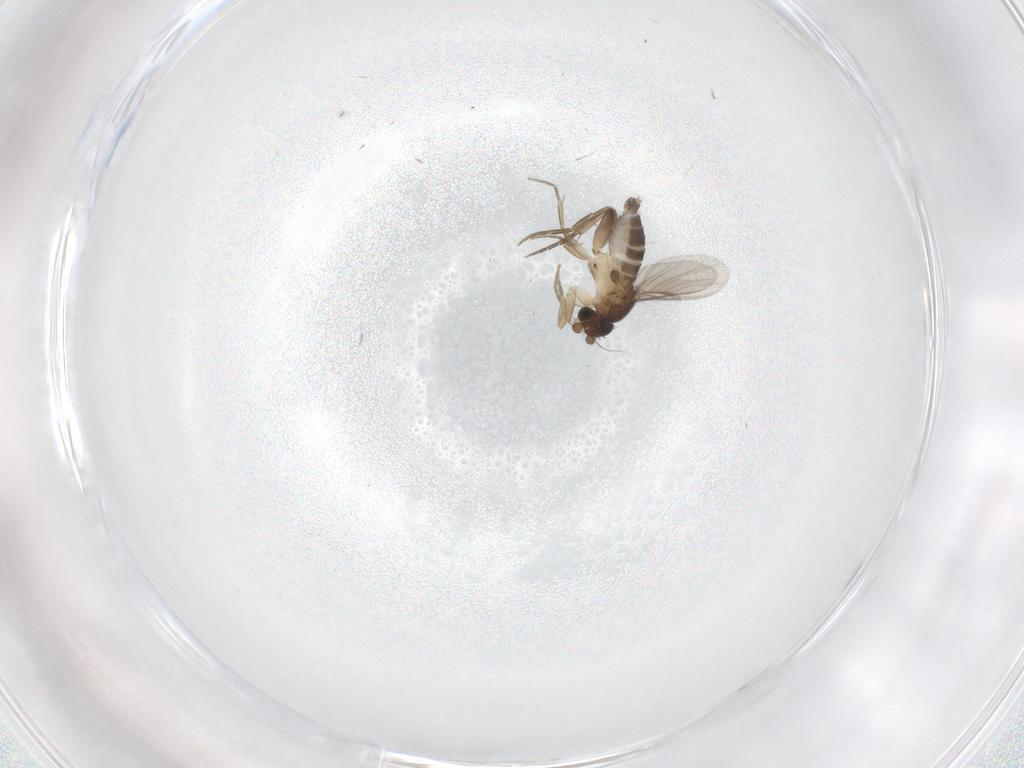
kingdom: Animalia
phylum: Arthropoda
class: Insecta
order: Diptera
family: Phoridae
